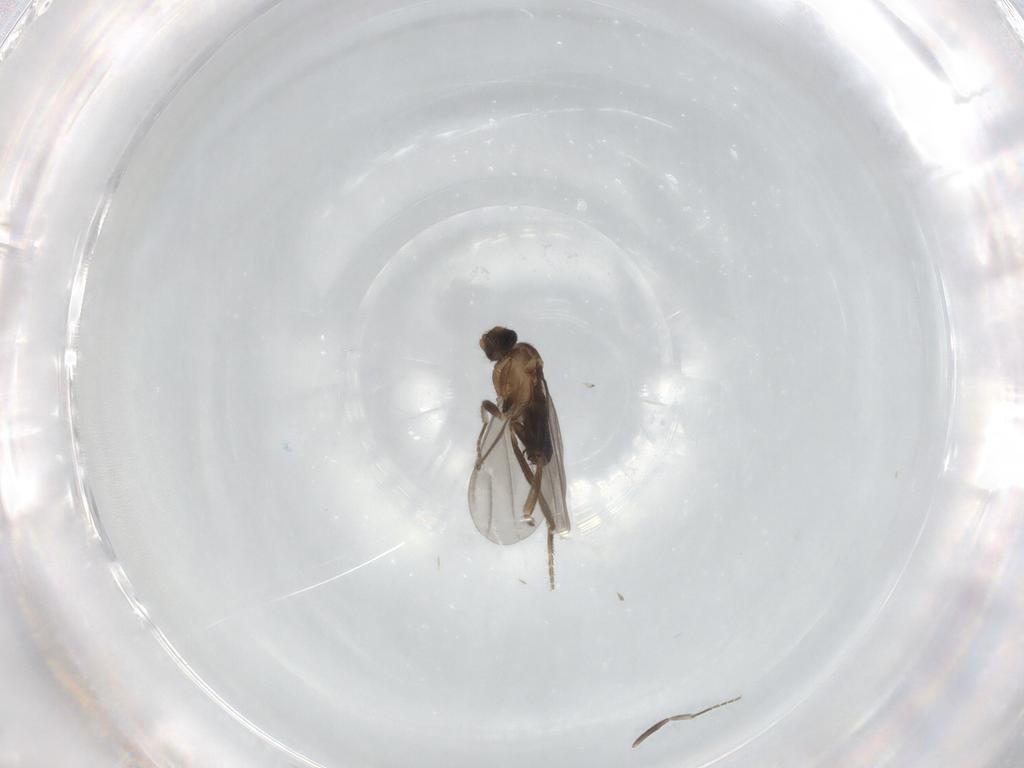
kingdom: Animalia
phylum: Arthropoda
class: Insecta
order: Diptera
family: Phoridae
